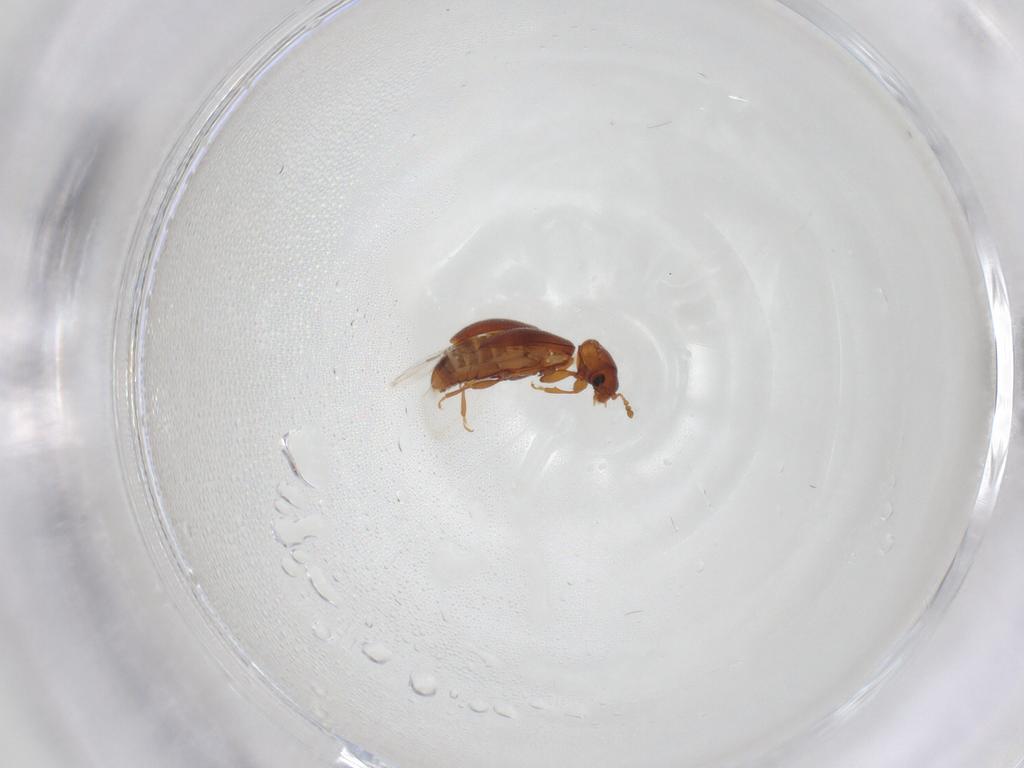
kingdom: Animalia
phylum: Arthropoda
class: Insecta
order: Coleoptera
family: Latridiidae
